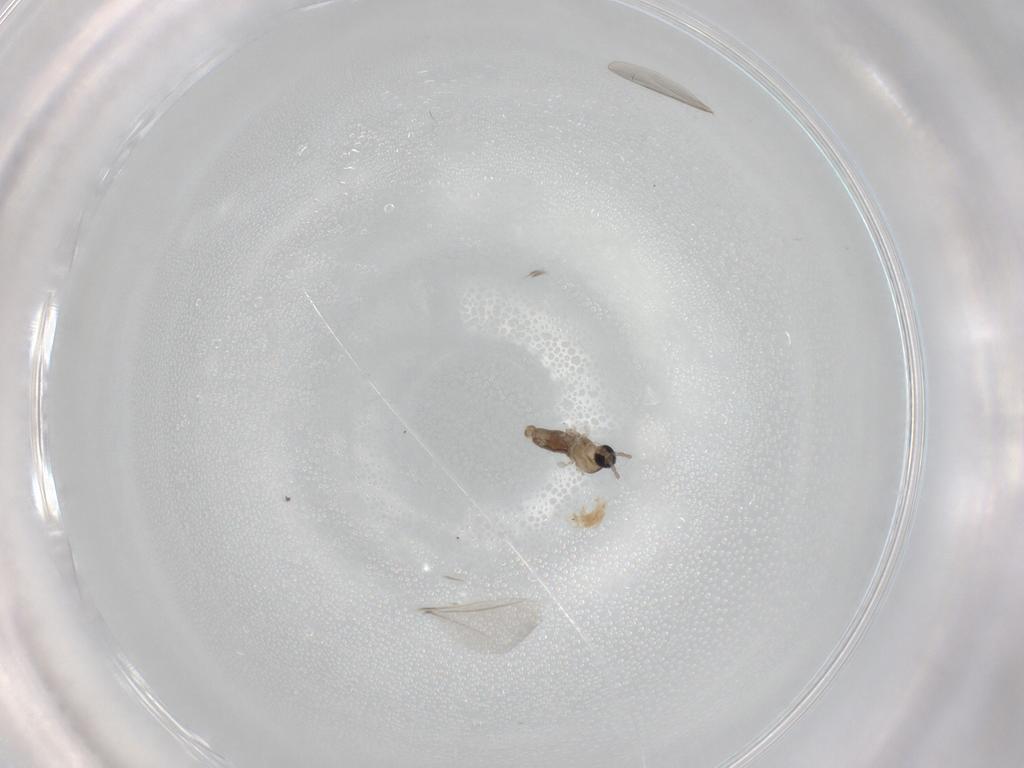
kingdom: Animalia
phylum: Arthropoda
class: Insecta
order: Diptera
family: Cecidomyiidae
